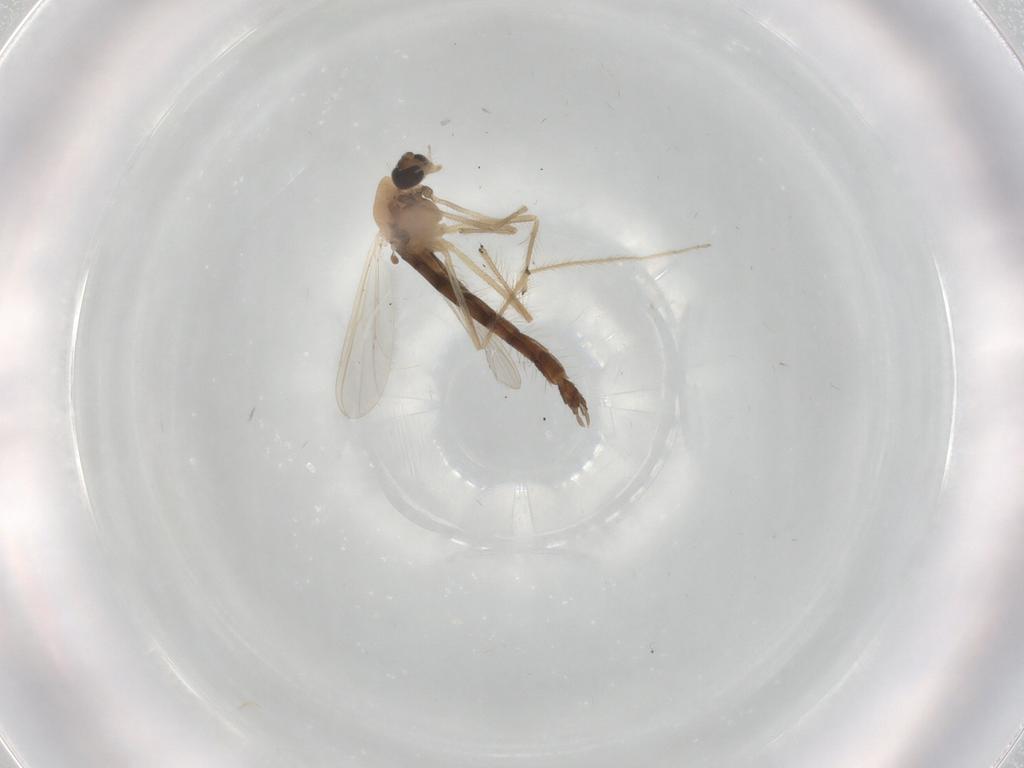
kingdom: Animalia
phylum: Arthropoda
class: Insecta
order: Diptera
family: Chironomidae
